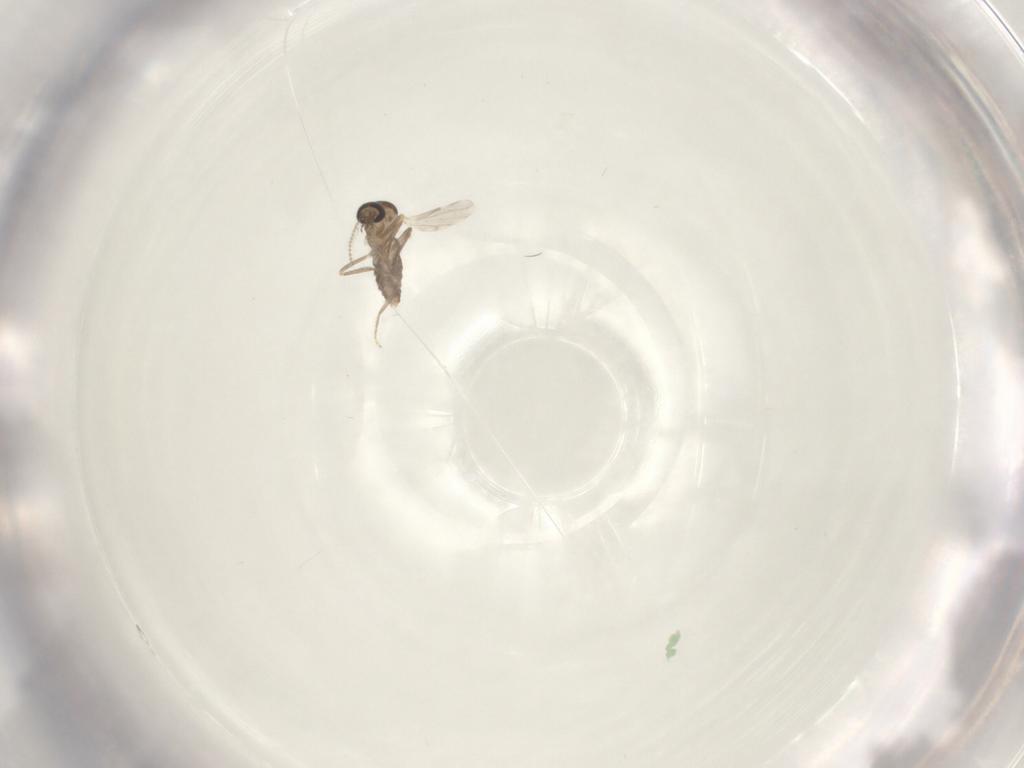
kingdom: Animalia
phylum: Arthropoda
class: Insecta
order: Diptera
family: Ceratopogonidae
